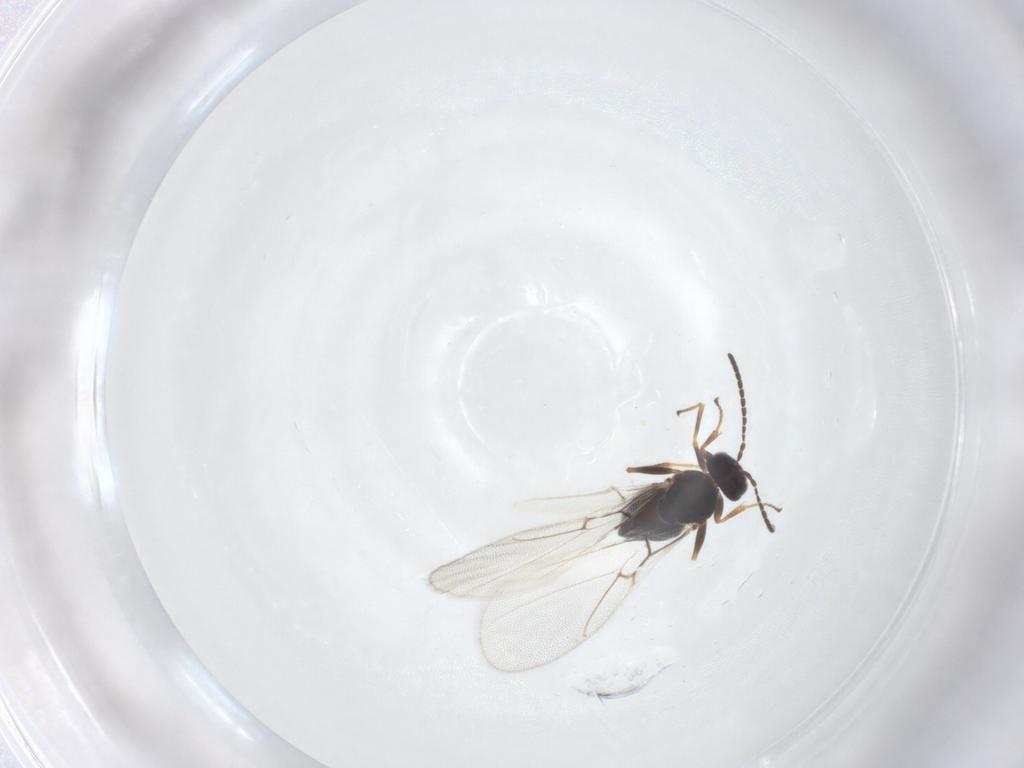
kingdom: Animalia
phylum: Arthropoda
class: Insecta
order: Hymenoptera
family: Cynipidae
